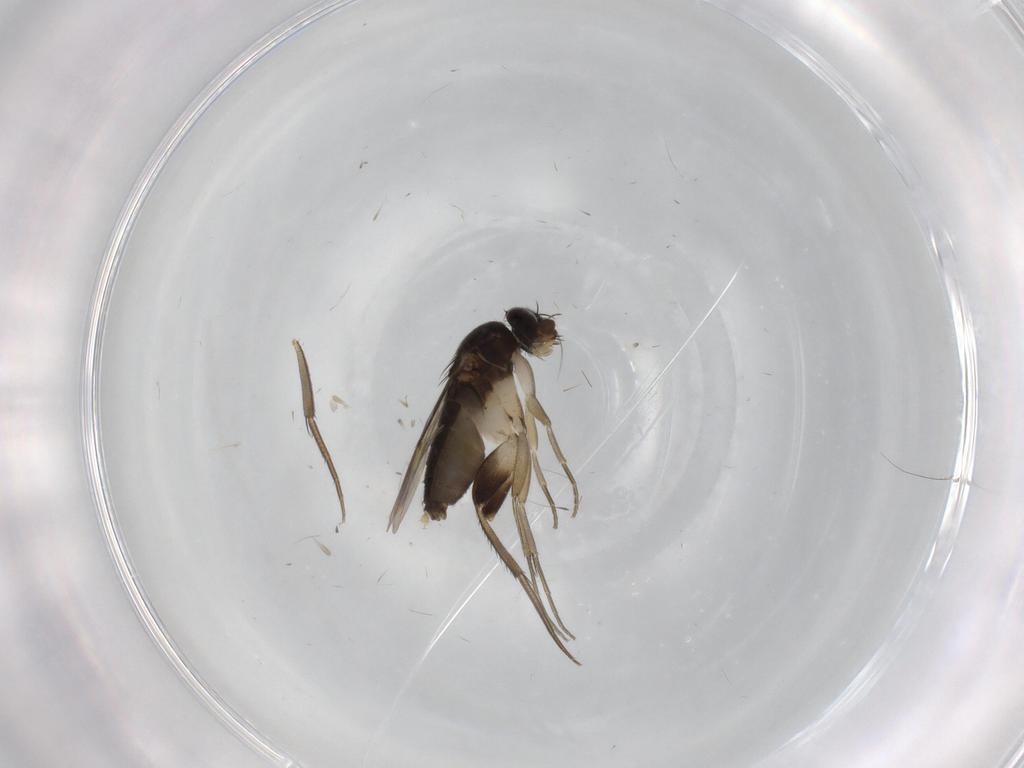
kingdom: Animalia
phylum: Arthropoda
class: Insecta
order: Diptera
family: Phoridae
